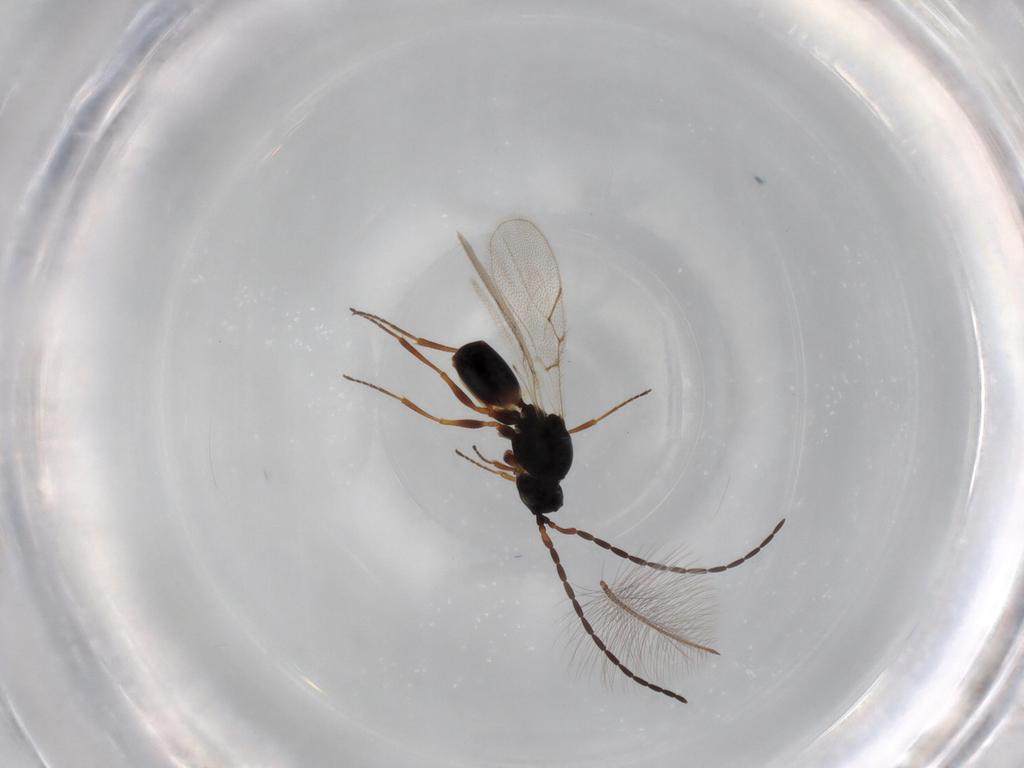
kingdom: Animalia
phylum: Arthropoda
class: Insecta
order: Hymenoptera
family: Figitidae
